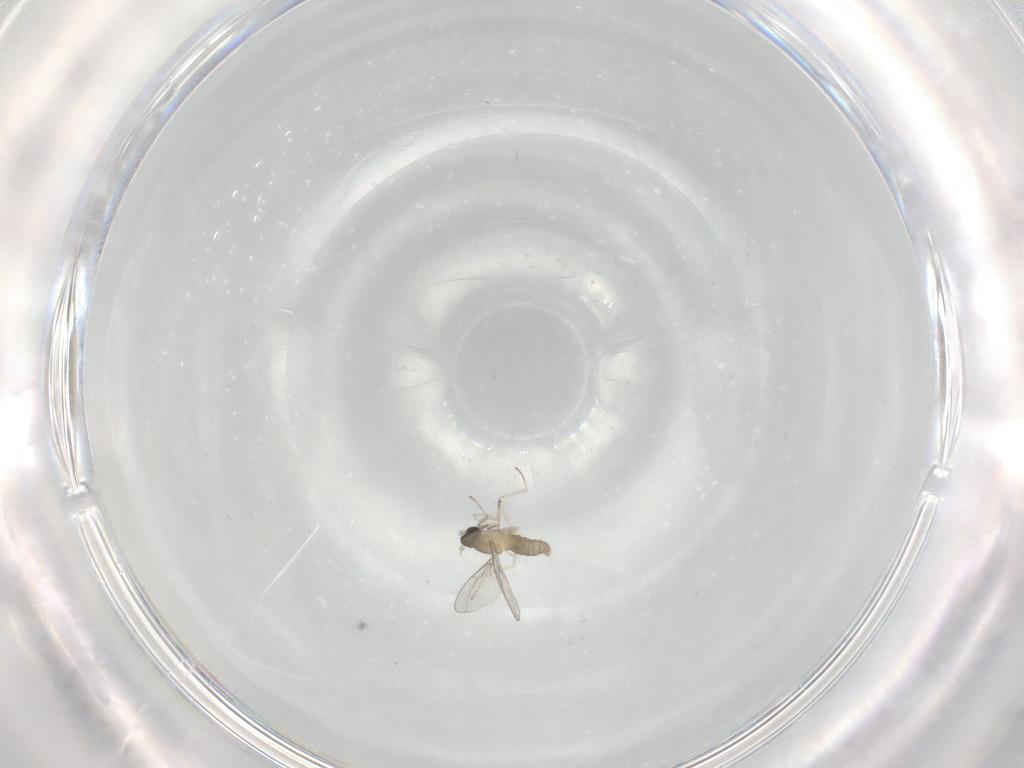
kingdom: Animalia
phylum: Arthropoda
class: Insecta
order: Diptera
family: Cecidomyiidae
